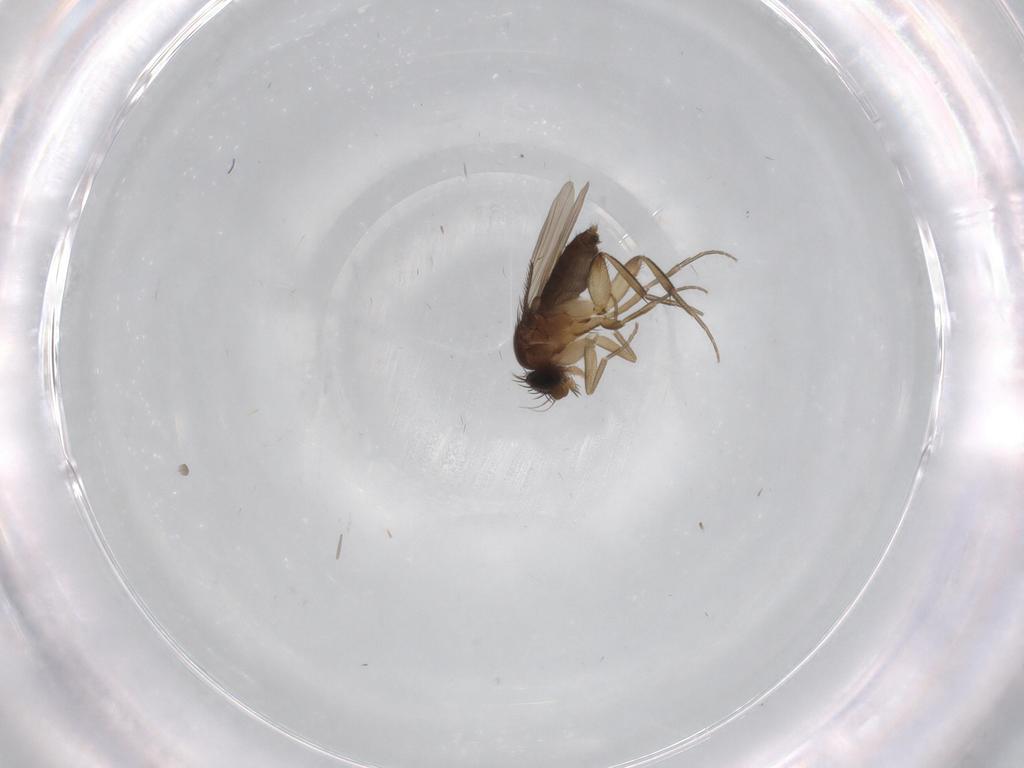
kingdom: Animalia
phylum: Arthropoda
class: Insecta
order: Diptera
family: Phoridae
